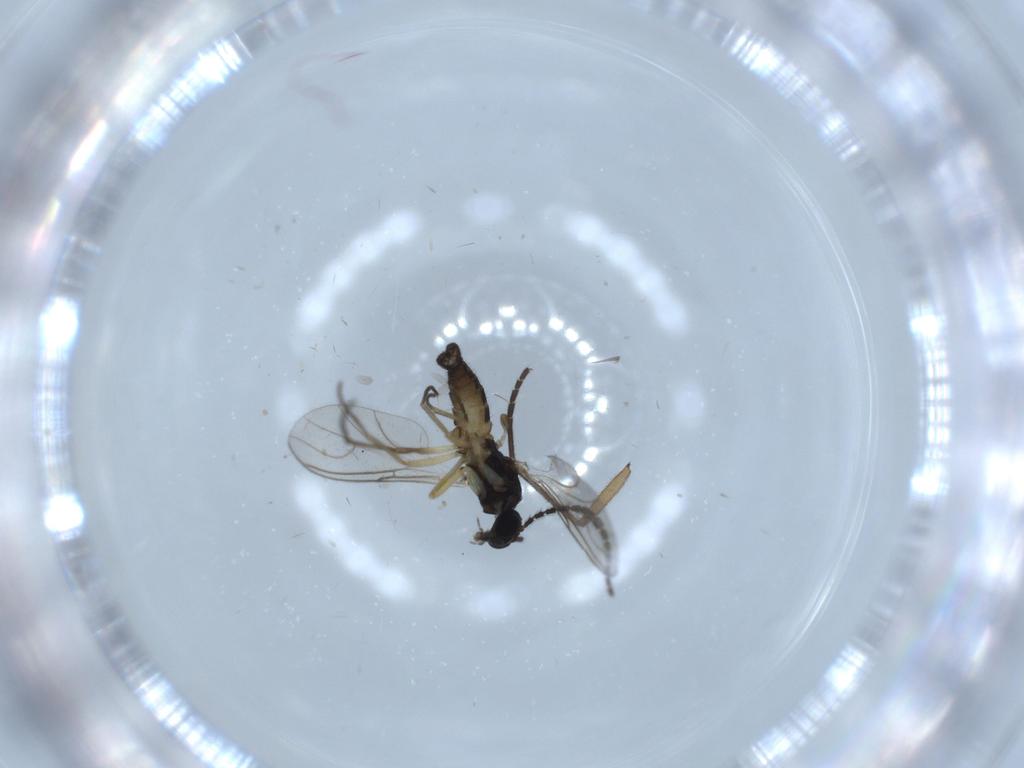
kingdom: Animalia
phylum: Arthropoda
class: Insecta
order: Diptera
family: Sciaridae
